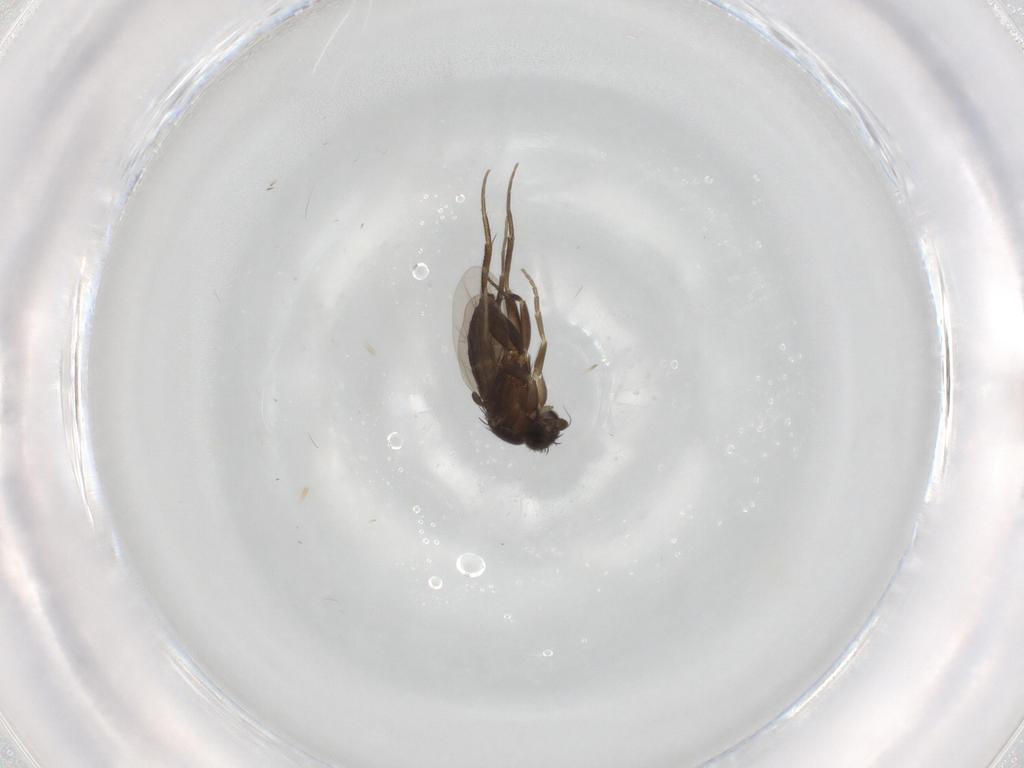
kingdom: Animalia
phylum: Arthropoda
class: Insecta
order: Diptera
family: Phoridae
